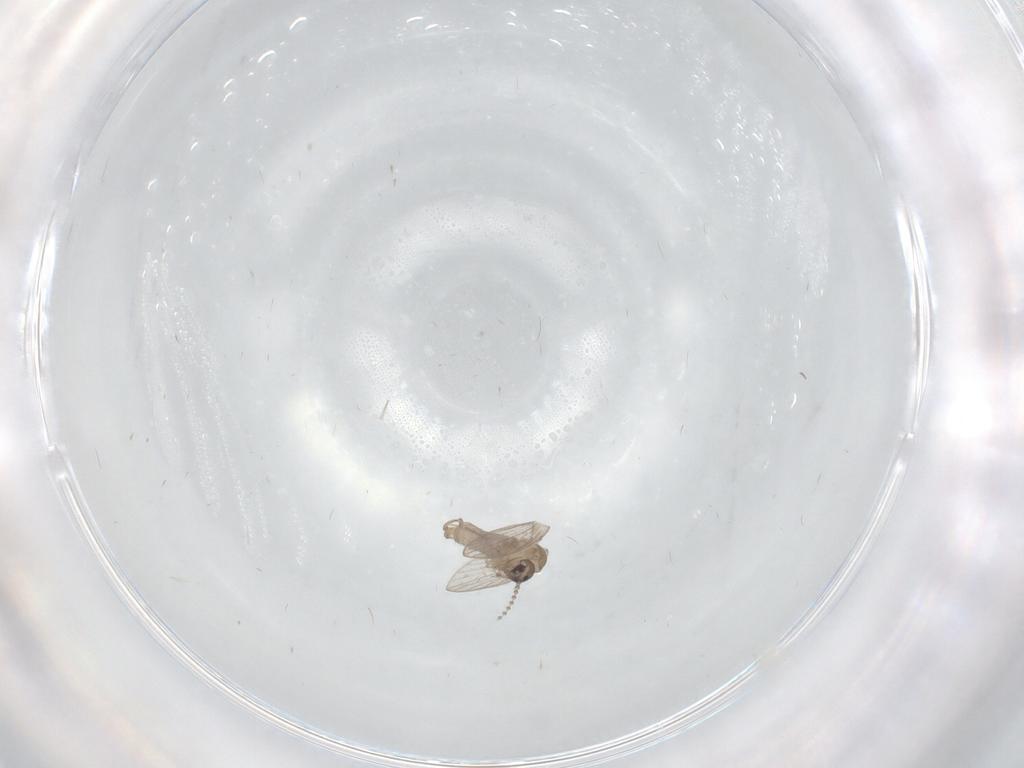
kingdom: Animalia
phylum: Arthropoda
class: Insecta
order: Diptera
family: Psychodidae
